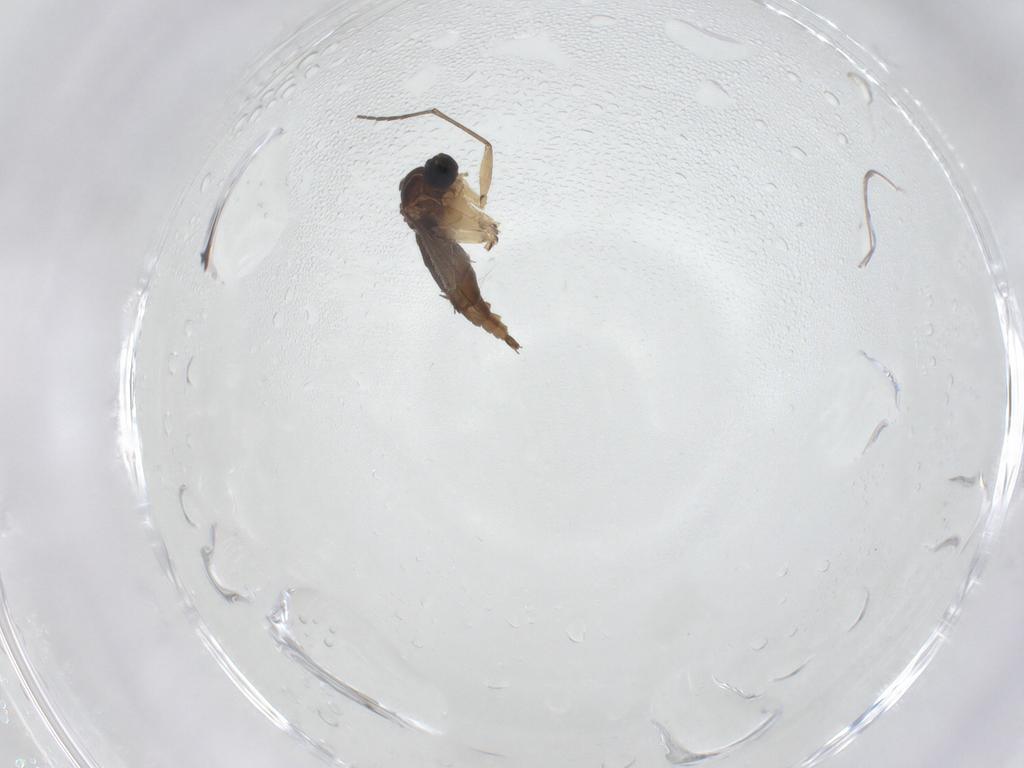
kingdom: Animalia
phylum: Arthropoda
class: Insecta
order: Diptera
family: Sciaridae
